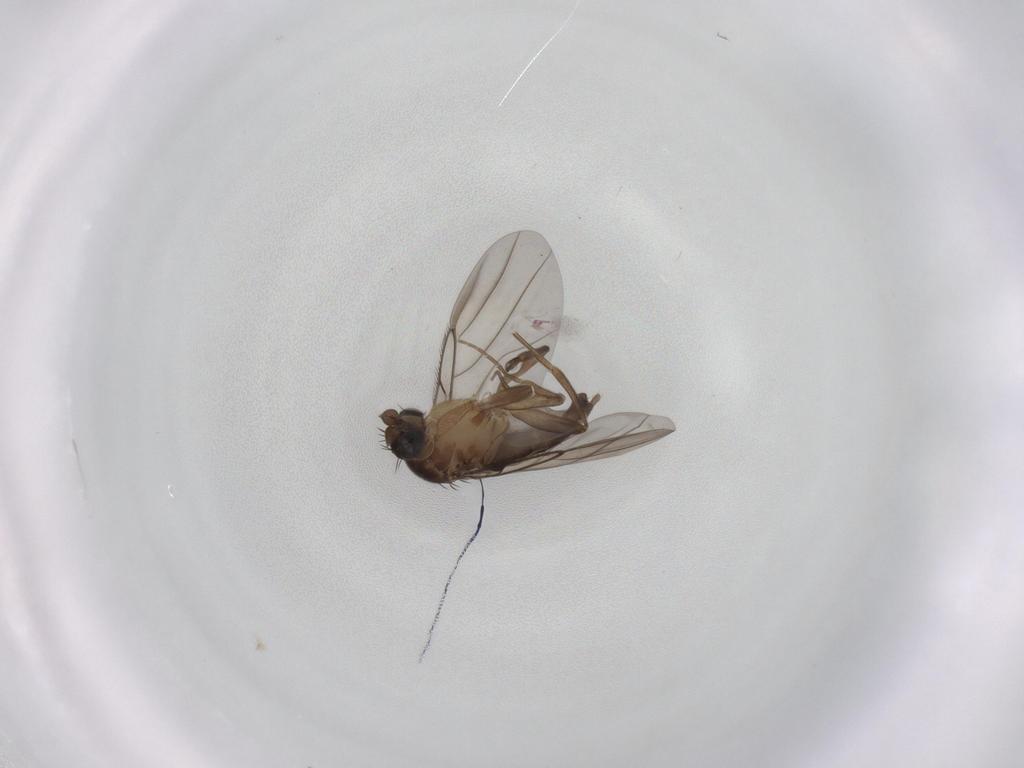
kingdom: Animalia
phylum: Arthropoda
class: Insecta
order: Diptera
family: Phoridae
